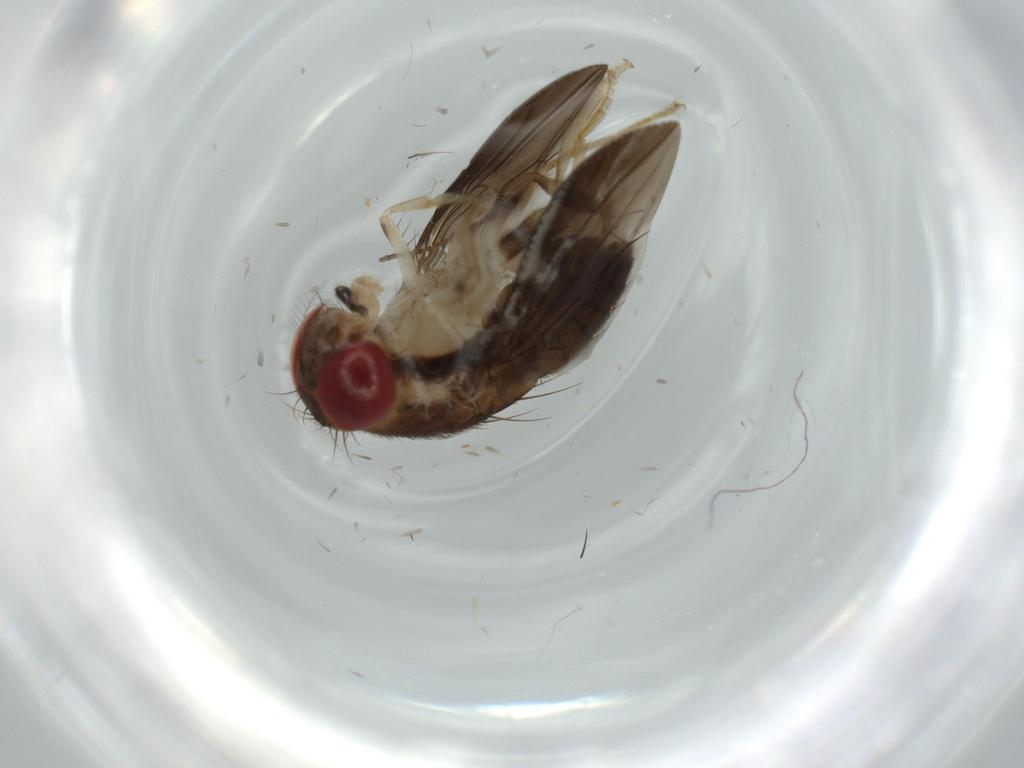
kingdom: Animalia
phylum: Arthropoda
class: Insecta
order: Diptera
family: Drosophilidae
